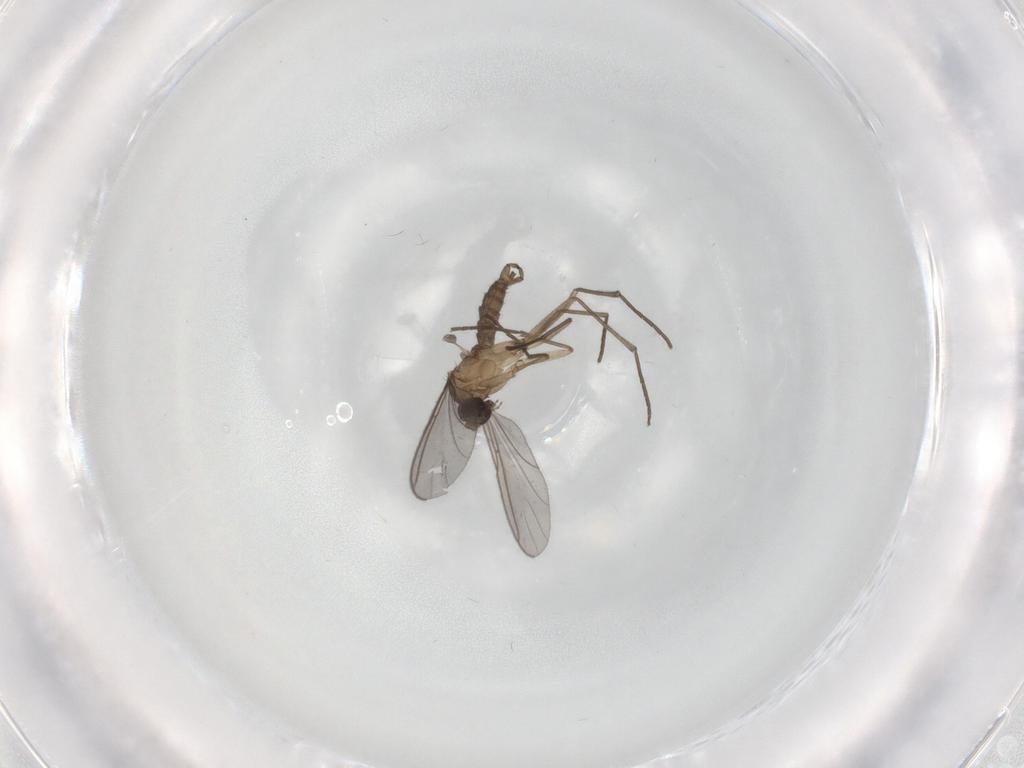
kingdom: Animalia
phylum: Arthropoda
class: Insecta
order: Diptera
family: Sciaridae
